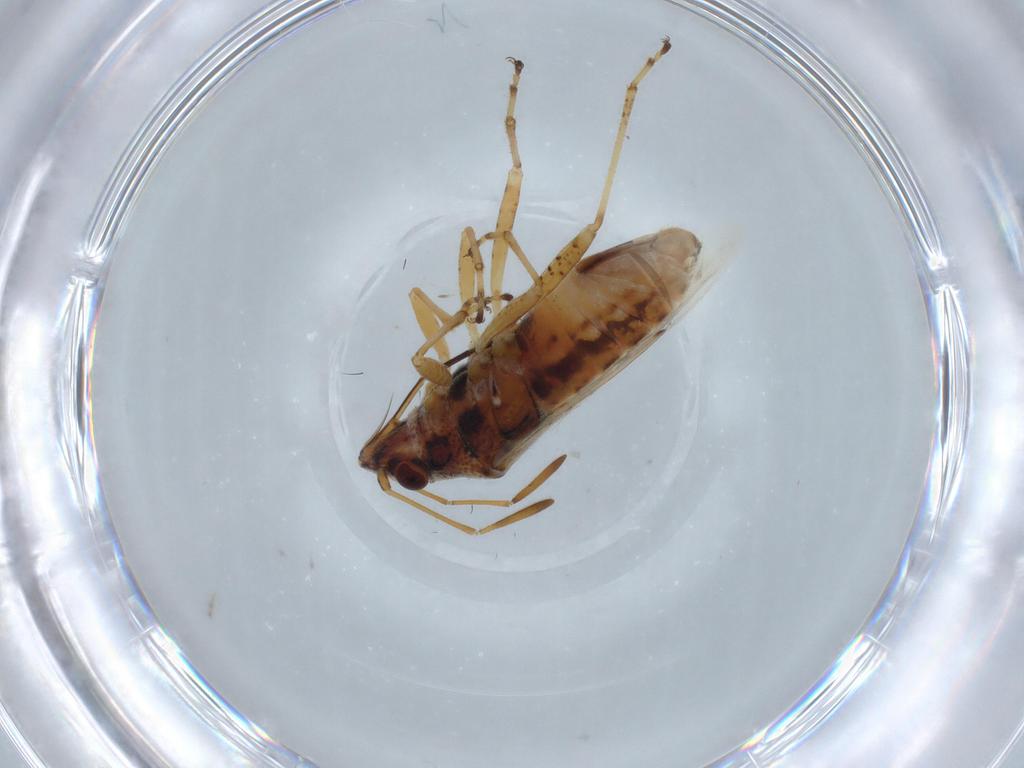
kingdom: Animalia
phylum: Arthropoda
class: Insecta
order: Hemiptera
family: Lygaeidae
